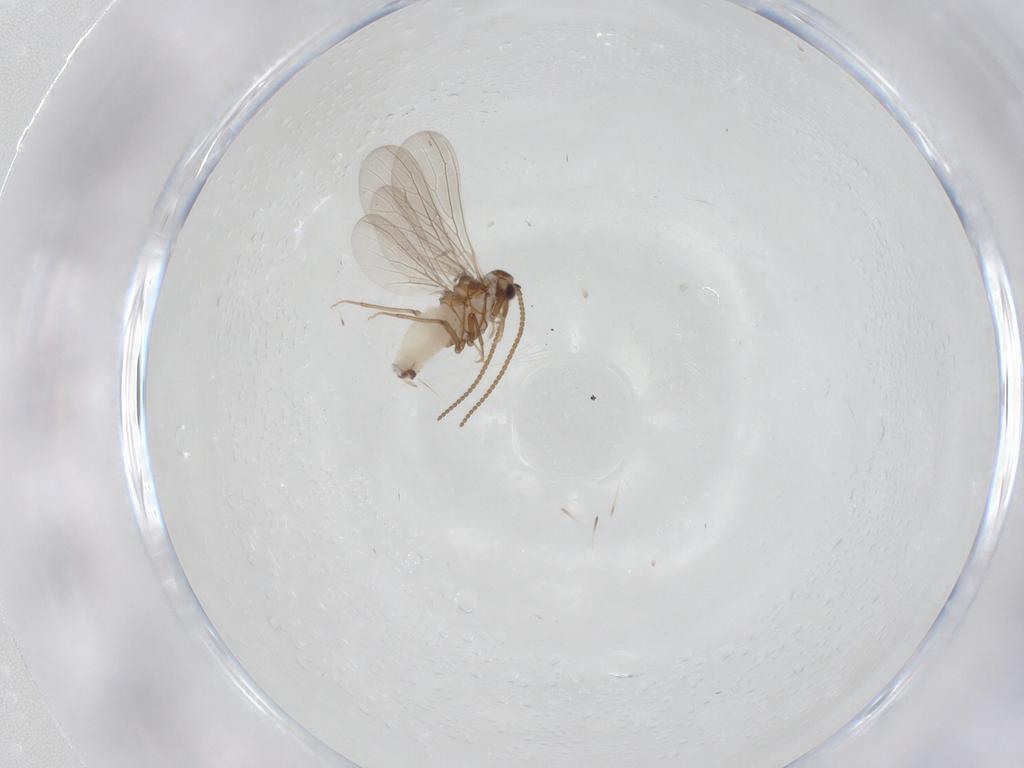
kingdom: Animalia
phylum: Arthropoda
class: Insecta
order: Neuroptera
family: Coniopterygidae
